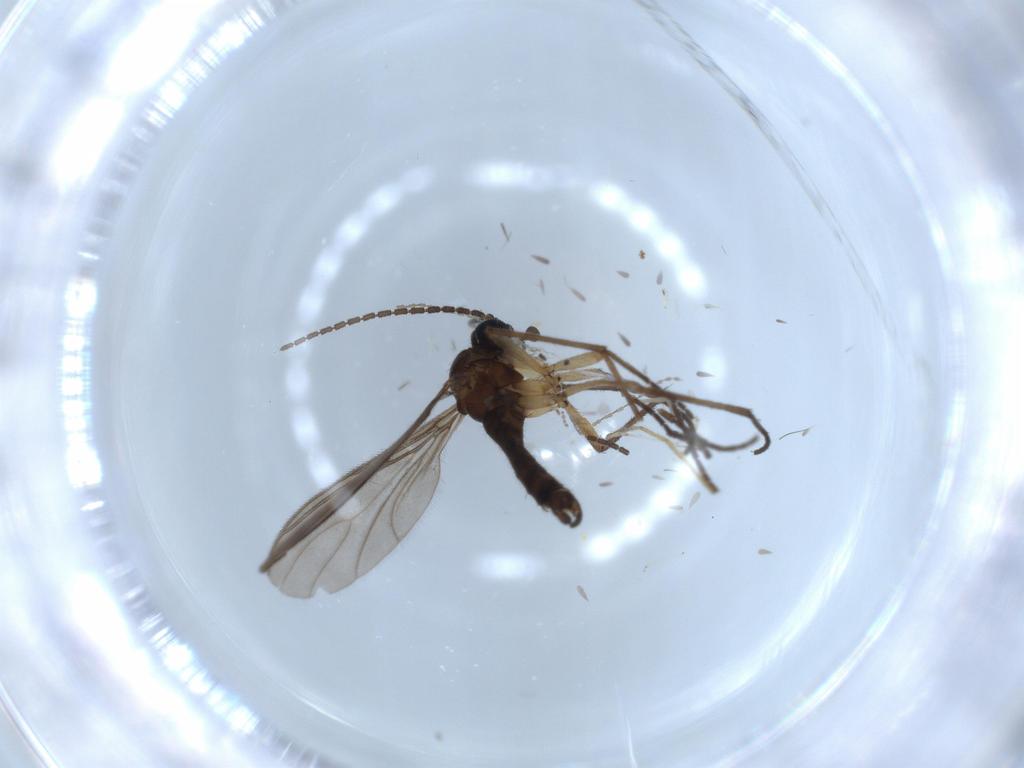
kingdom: Animalia
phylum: Arthropoda
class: Insecta
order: Diptera
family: Sciaridae
